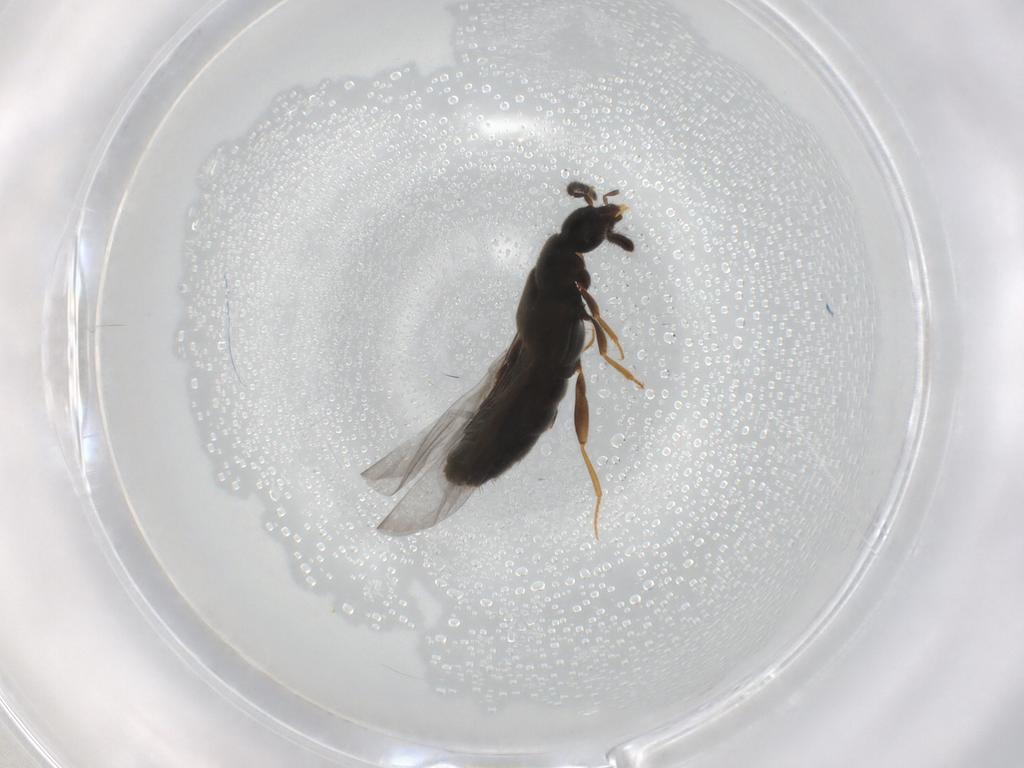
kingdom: Animalia
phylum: Arthropoda
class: Insecta
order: Coleoptera
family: Staphylinidae
